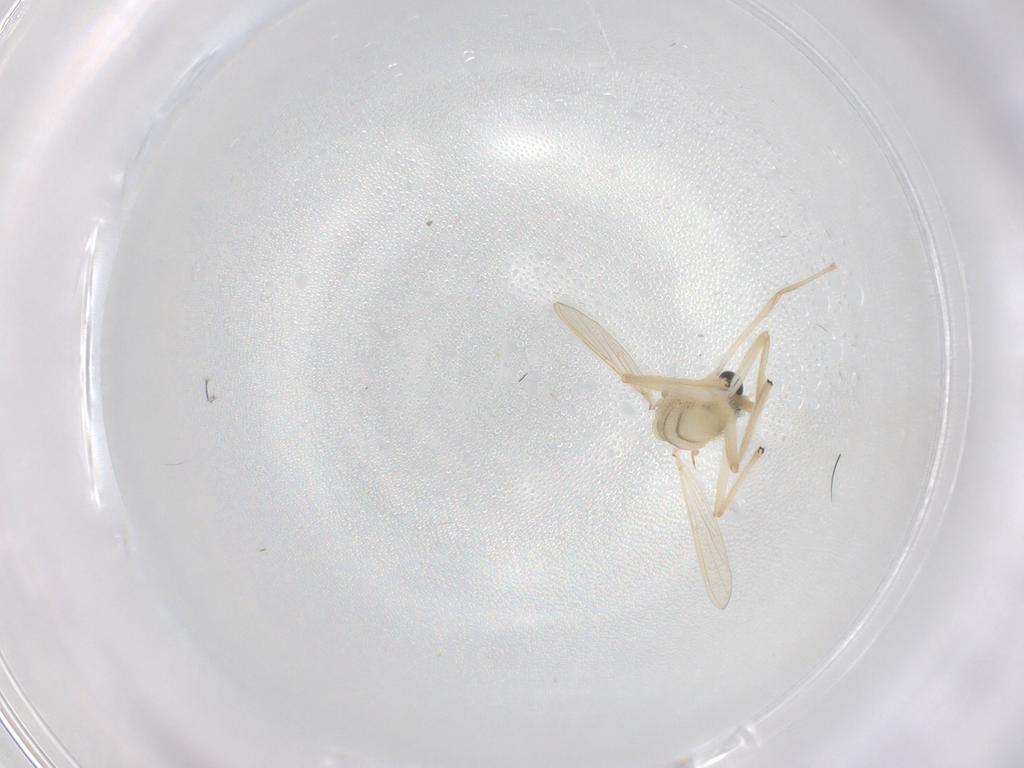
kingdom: Animalia
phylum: Arthropoda
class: Insecta
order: Diptera
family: Chironomidae
